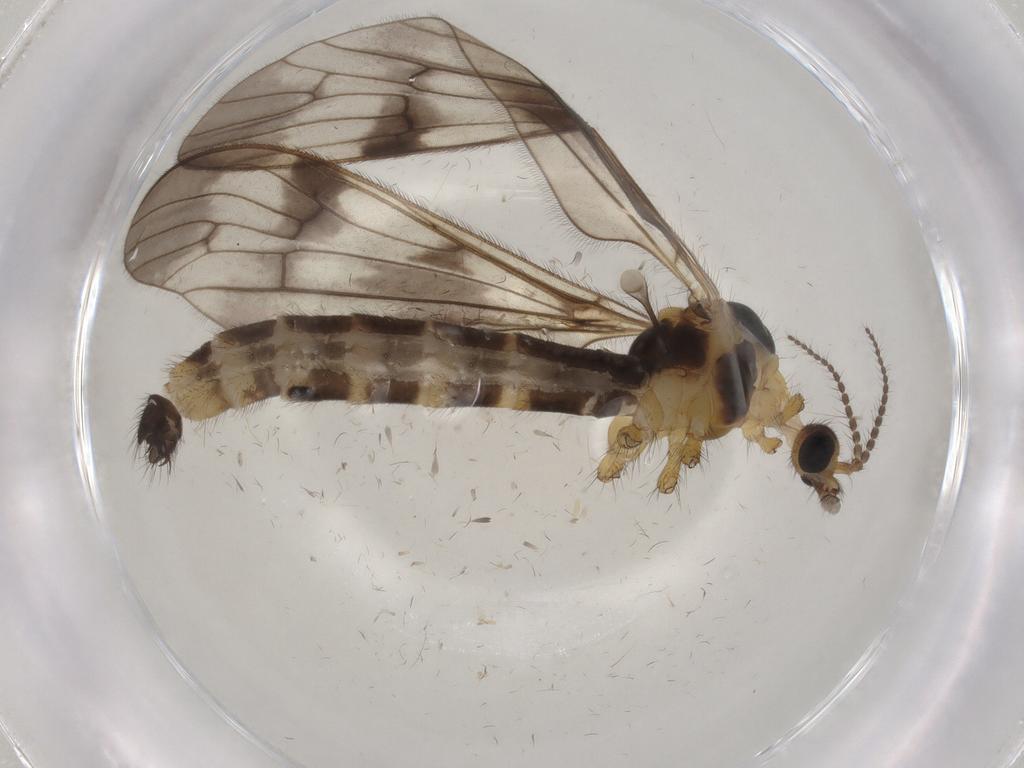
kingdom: Animalia
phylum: Arthropoda
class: Insecta
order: Diptera
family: Limoniidae
